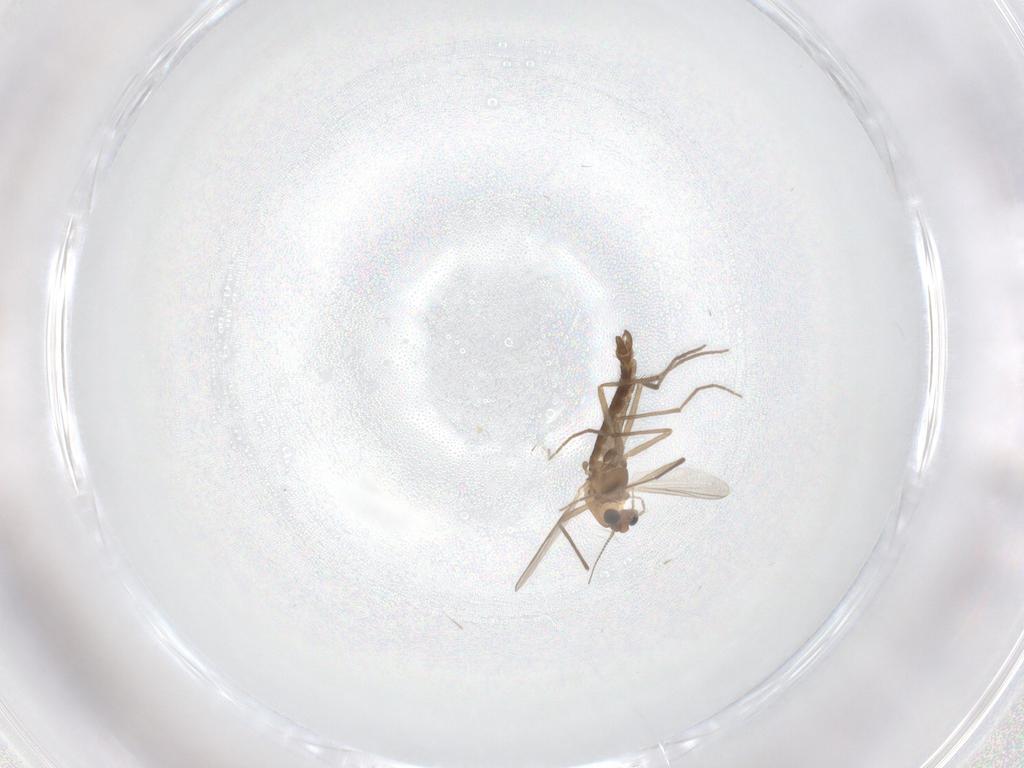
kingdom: Animalia
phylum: Arthropoda
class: Insecta
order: Diptera
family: Chironomidae
